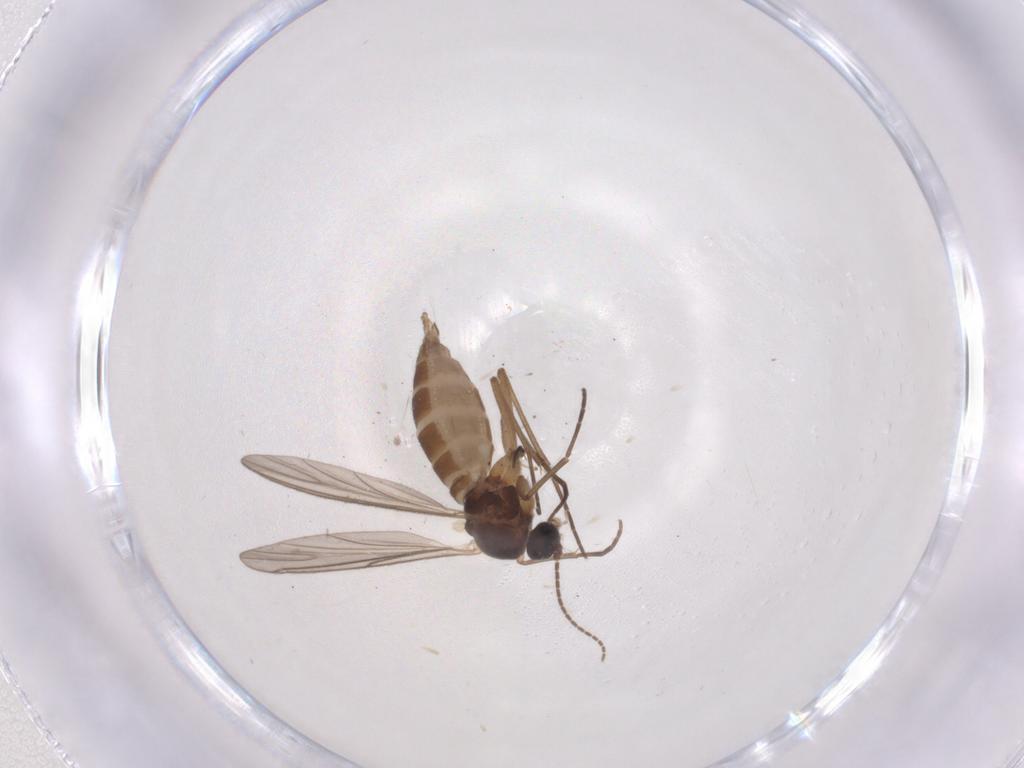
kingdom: Animalia
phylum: Arthropoda
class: Insecta
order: Diptera
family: Sciaridae
